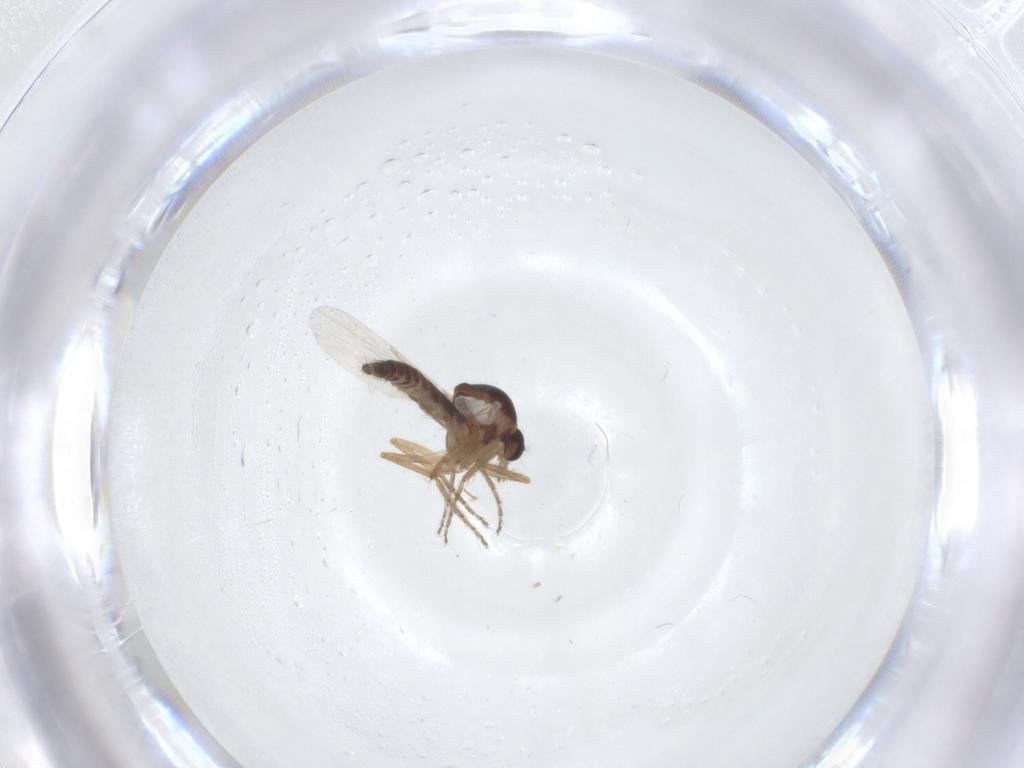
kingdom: Animalia
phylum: Arthropoda
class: Insecta
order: Diptera
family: Ceratopogonidae
